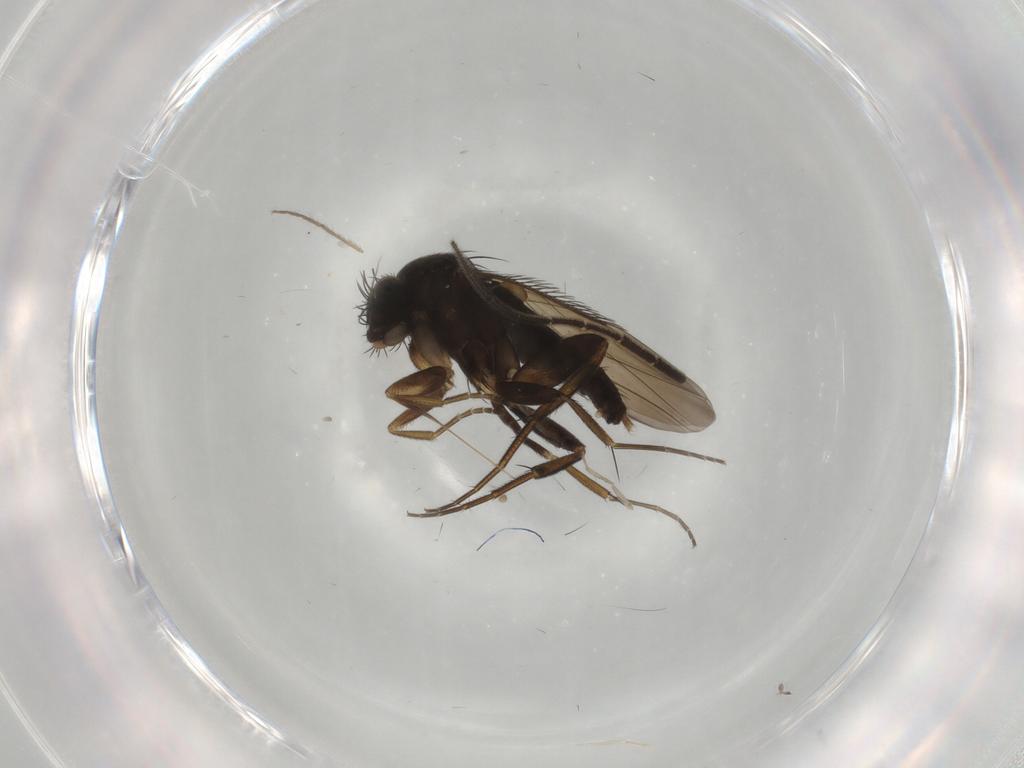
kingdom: Animalia
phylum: Arthropoda
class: Insecta
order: Diptera
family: Phoridae
